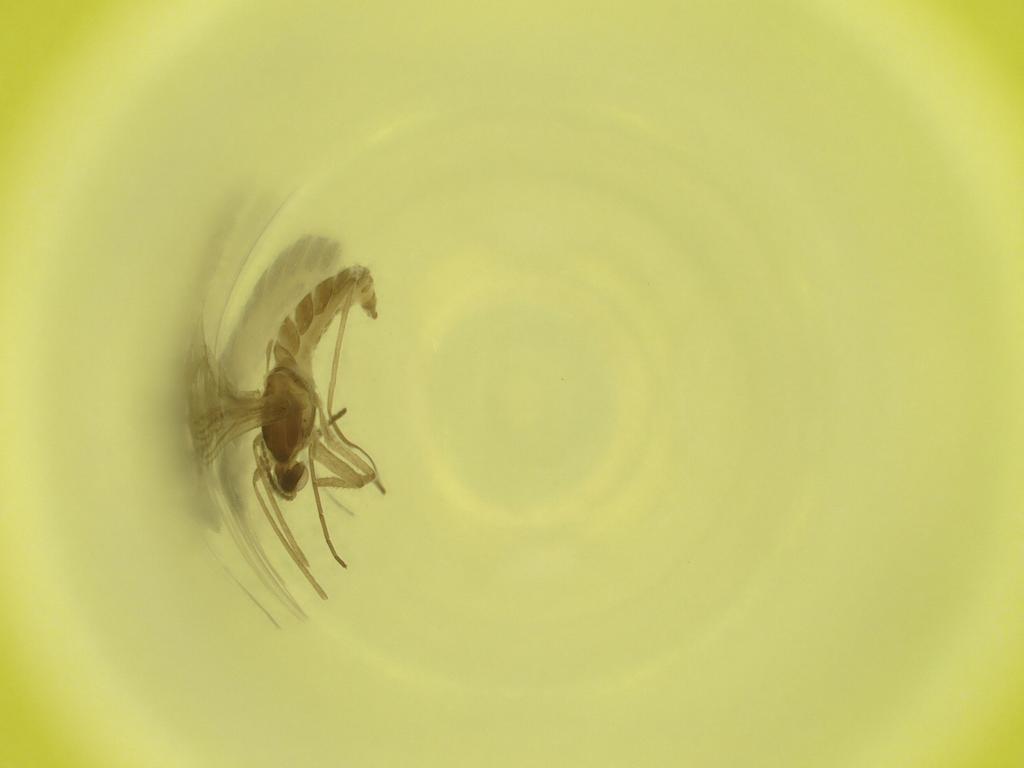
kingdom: Animalia
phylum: Arthropoda
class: Insecta
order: Diptera
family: Cecidomyiidae
